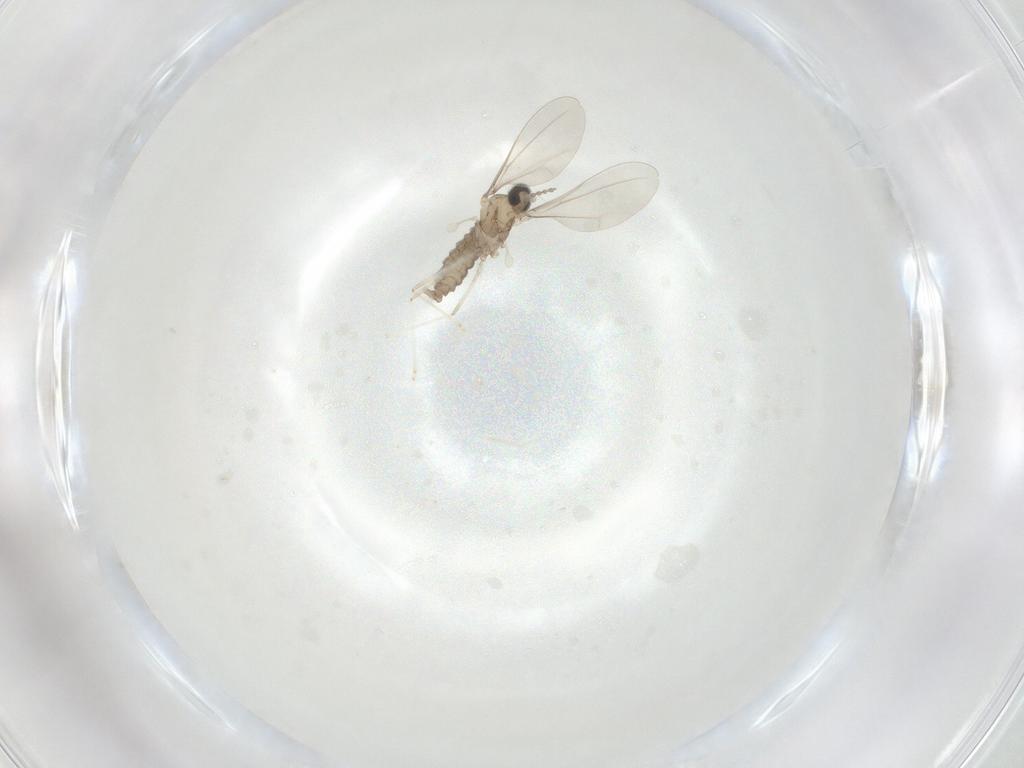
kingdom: Animalia
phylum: Arthropoda
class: Insecta
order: Diptera
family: Cecidomyiidae
